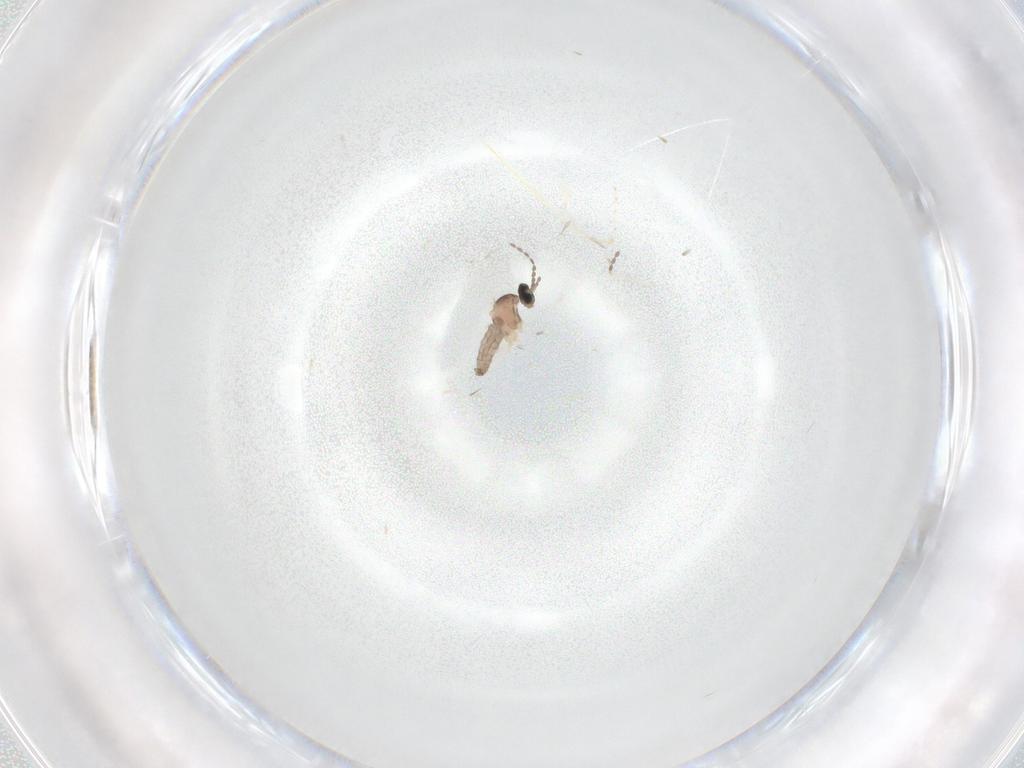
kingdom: Animalia
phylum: Arthropoda
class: Insecta
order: Diptera
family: Cecidomyiidae
